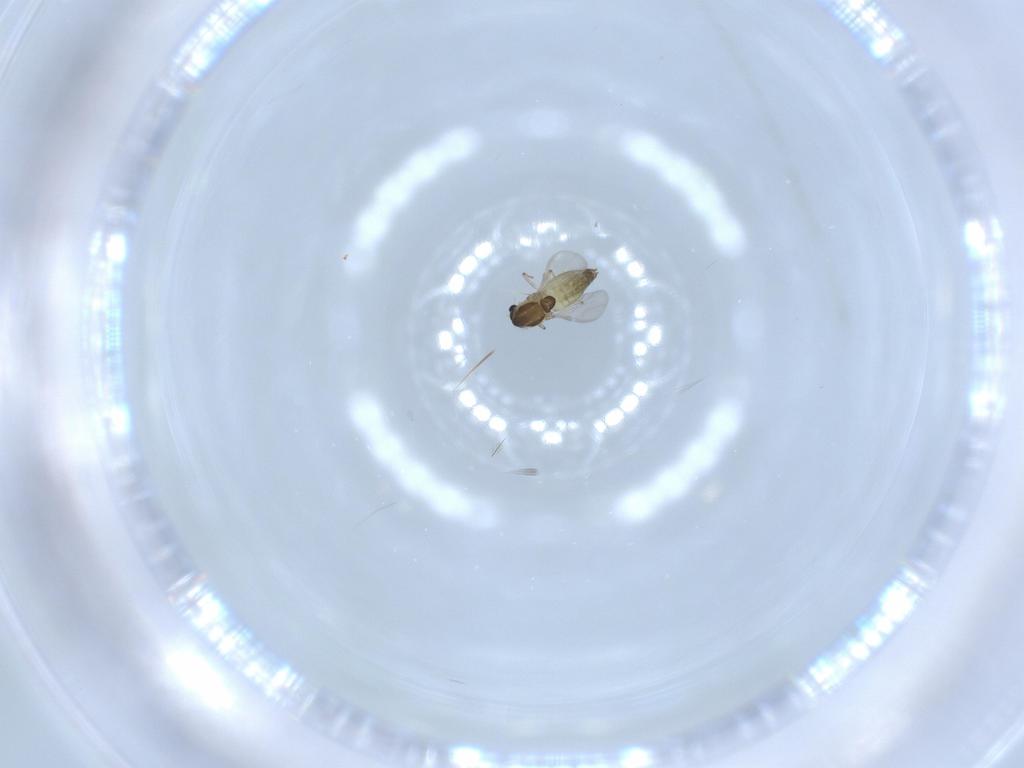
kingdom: Animalia
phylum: Arthropoda
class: Insecta
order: Diptera
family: Chironomidae
